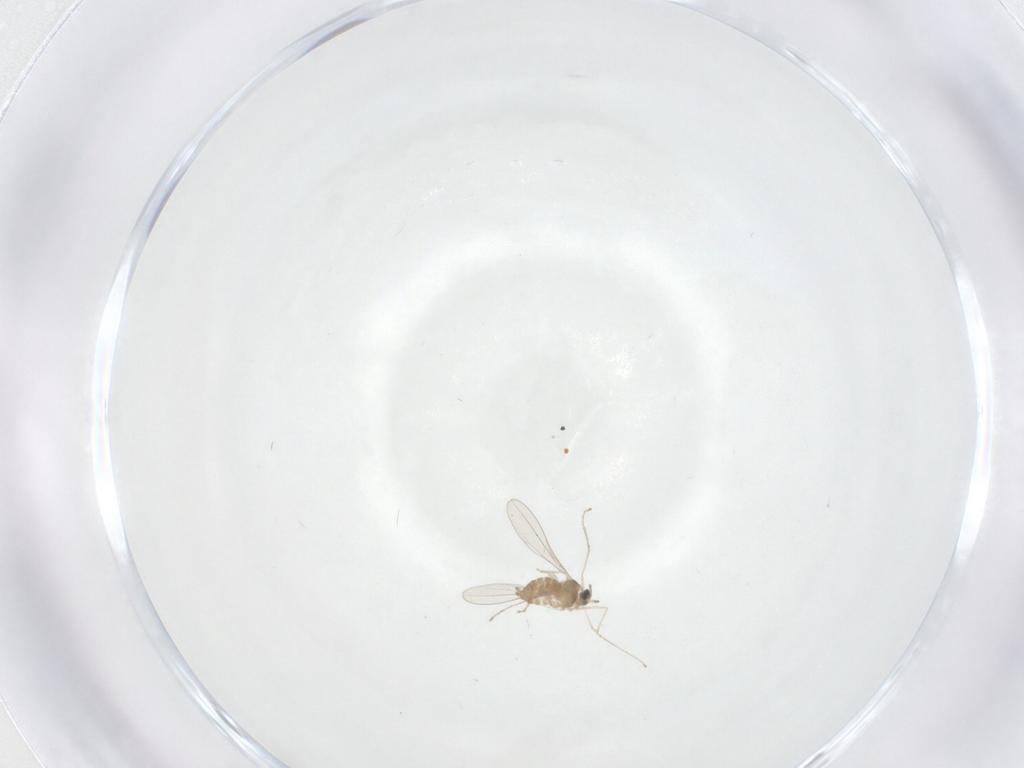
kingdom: Animalia
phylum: Arthropoda
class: Insecta
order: Diptera
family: Cecidomyiidae
